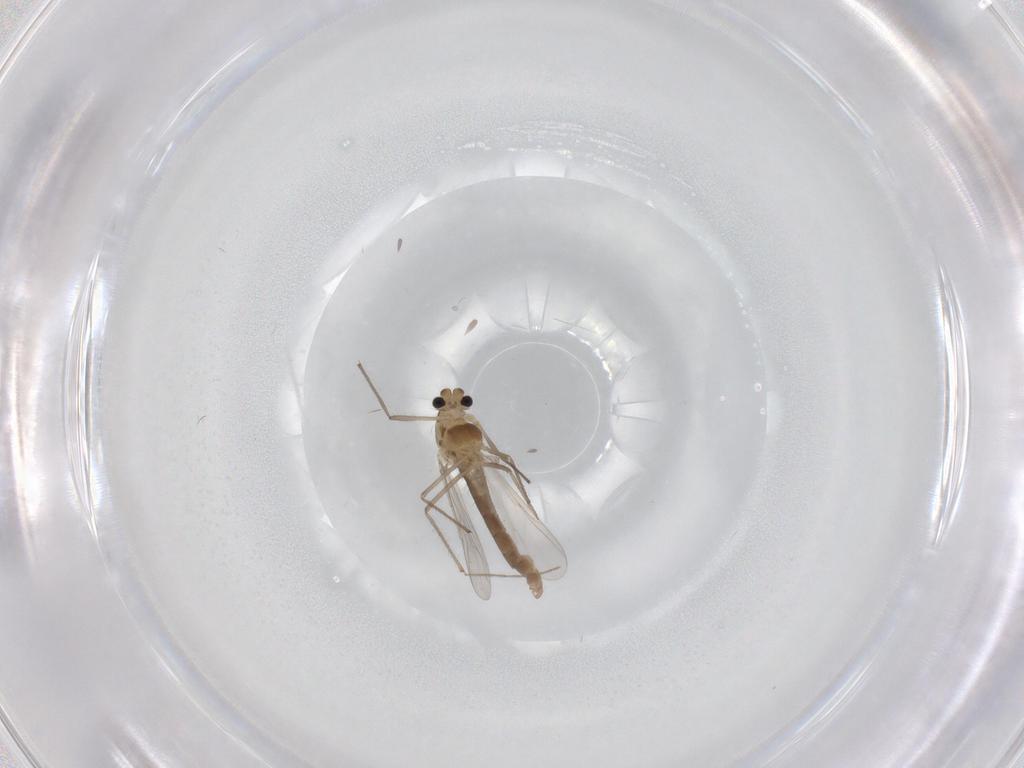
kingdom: Animalia
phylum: Arthropoda
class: Insecta
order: Diptera
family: Chironomidae
